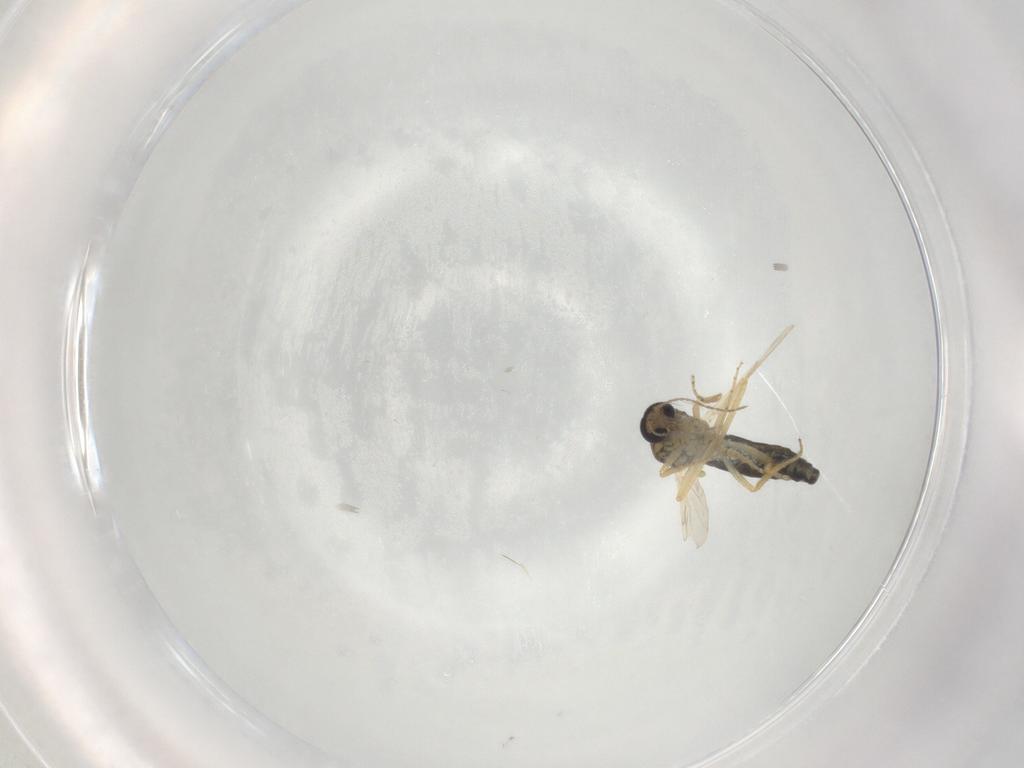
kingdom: Animalia
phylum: Arthropoda
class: Insecta
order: Diptera
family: Ceratopogonidae
